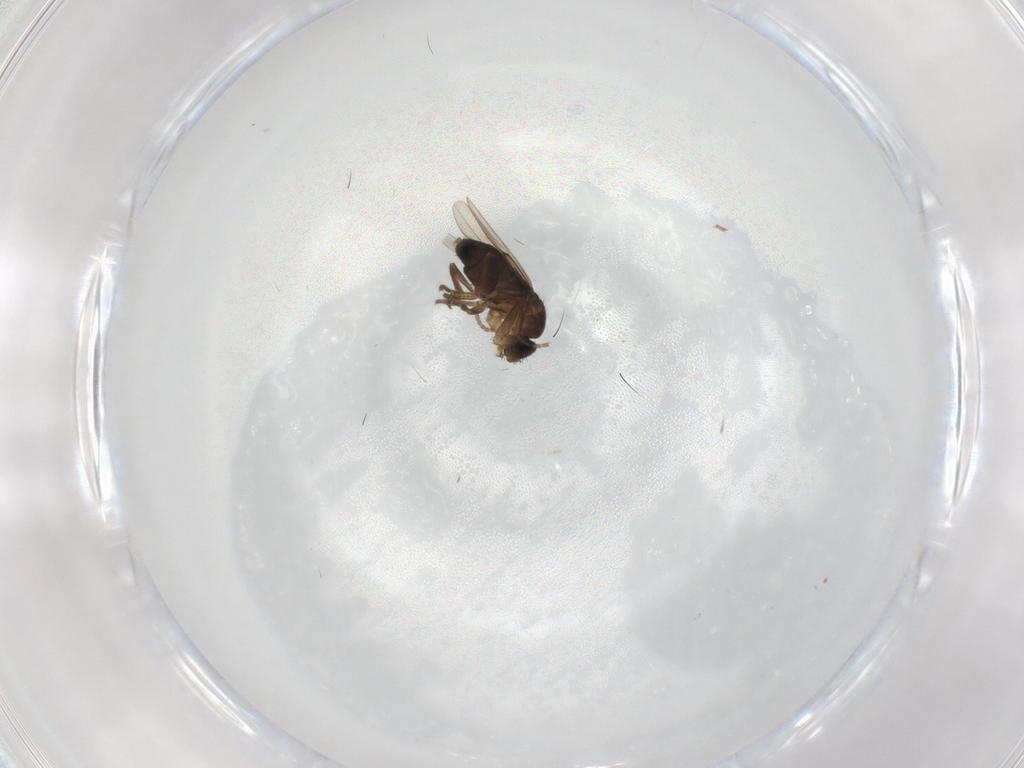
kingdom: Animalia
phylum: Arthropoda
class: Insecta
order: Diptera
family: Phoridae
